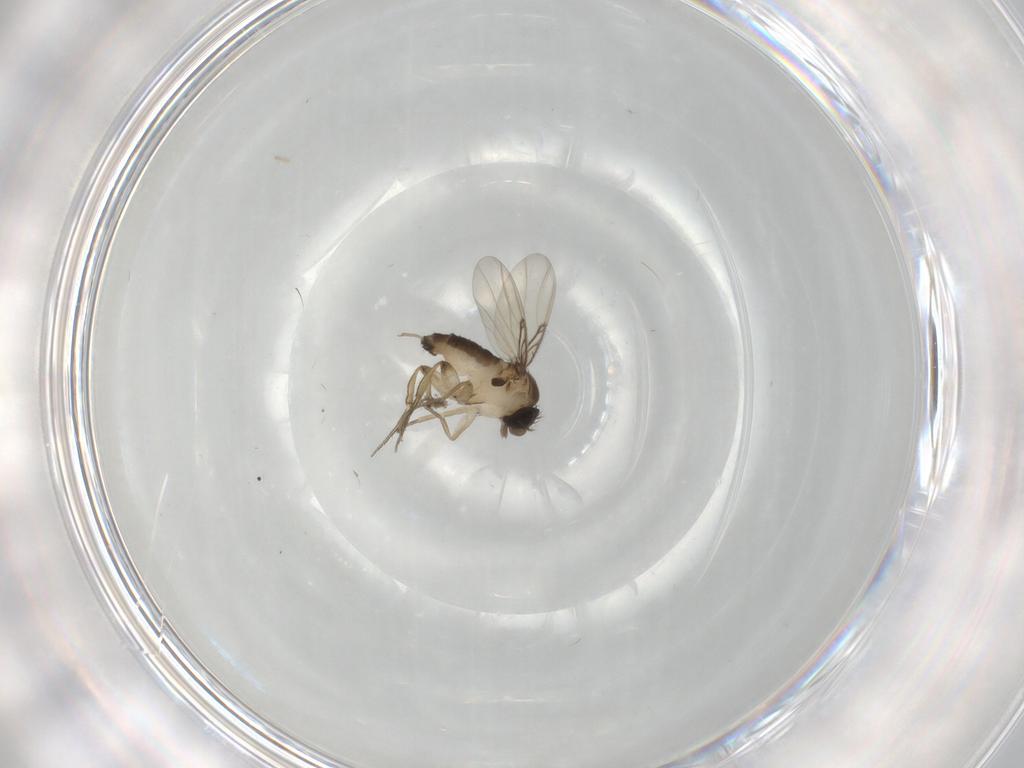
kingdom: Animalia
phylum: Arthropoda
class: Insecta
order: Diptera
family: Phoridae
